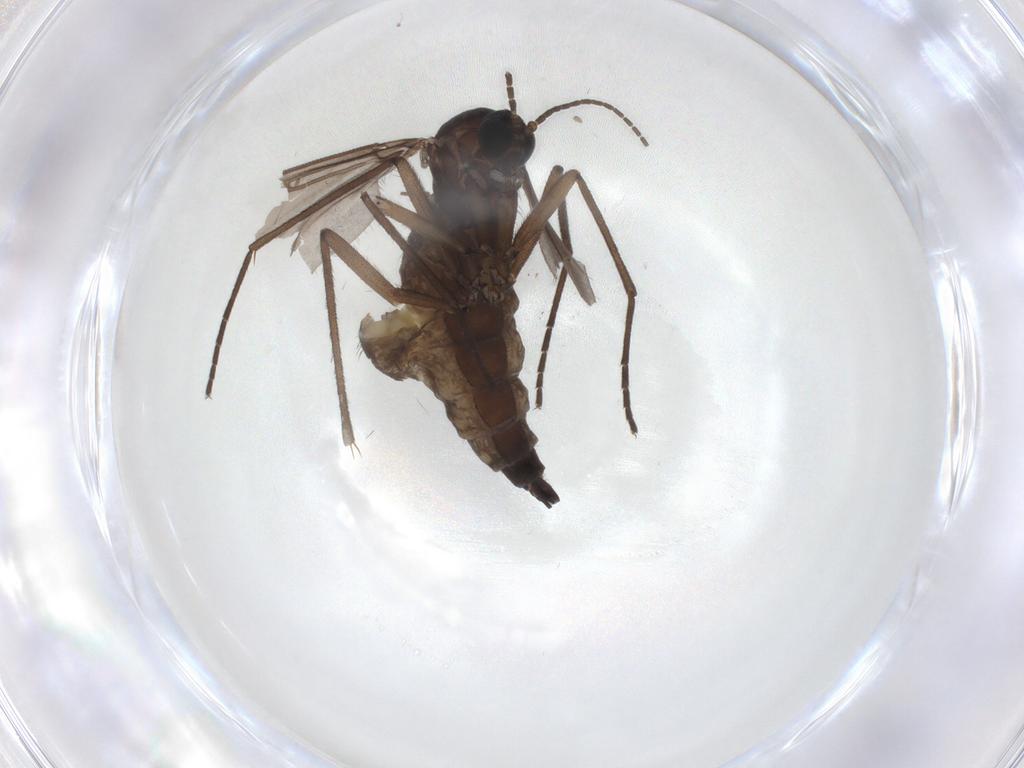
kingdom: Animalia
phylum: Arthropoda
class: Insecta
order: Diptera
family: Sciaridae
